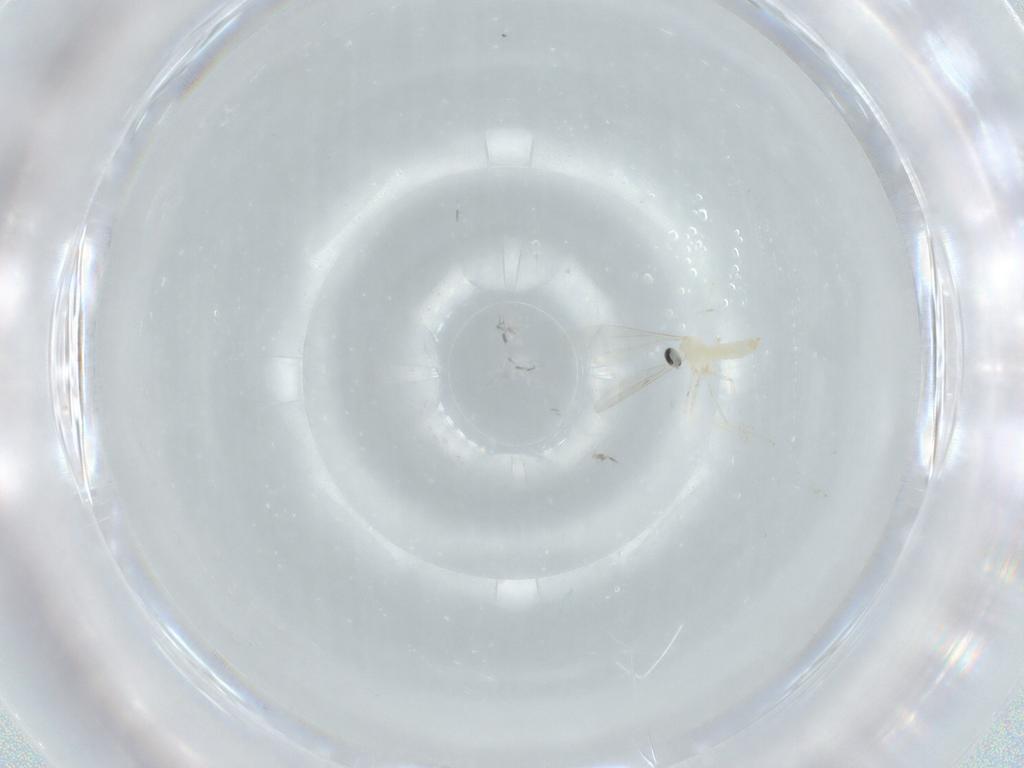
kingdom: Animalia
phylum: Arthropoda
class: Insecta
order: Diptera
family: Cecidomyiidae
